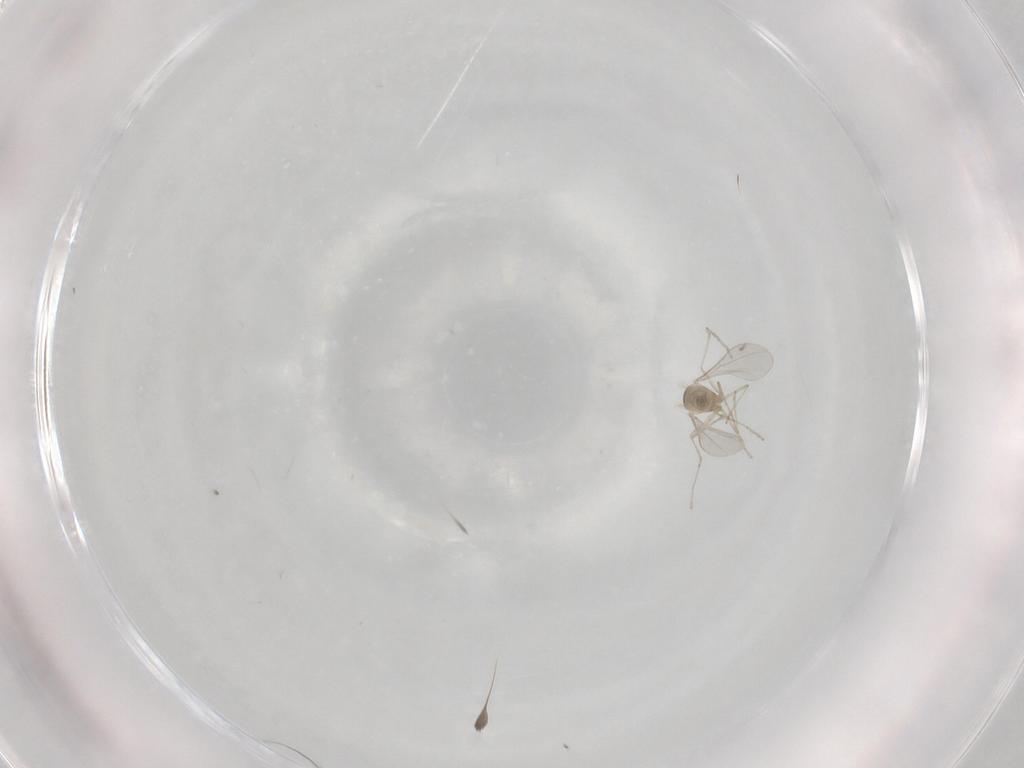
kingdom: Animalia
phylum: Arthropoda
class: Insecta
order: Diptera
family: Cecidomyiidae
